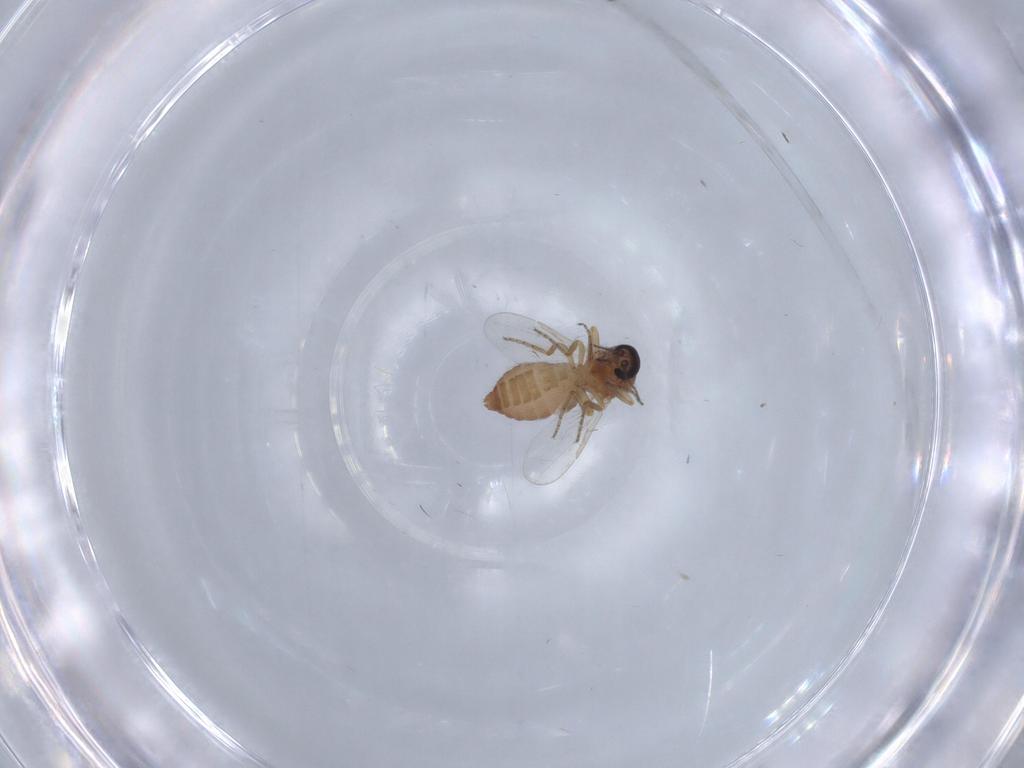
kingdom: Animalia
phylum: Arthropoda
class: Insecta
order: Diptera
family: Ceratopogonidae
